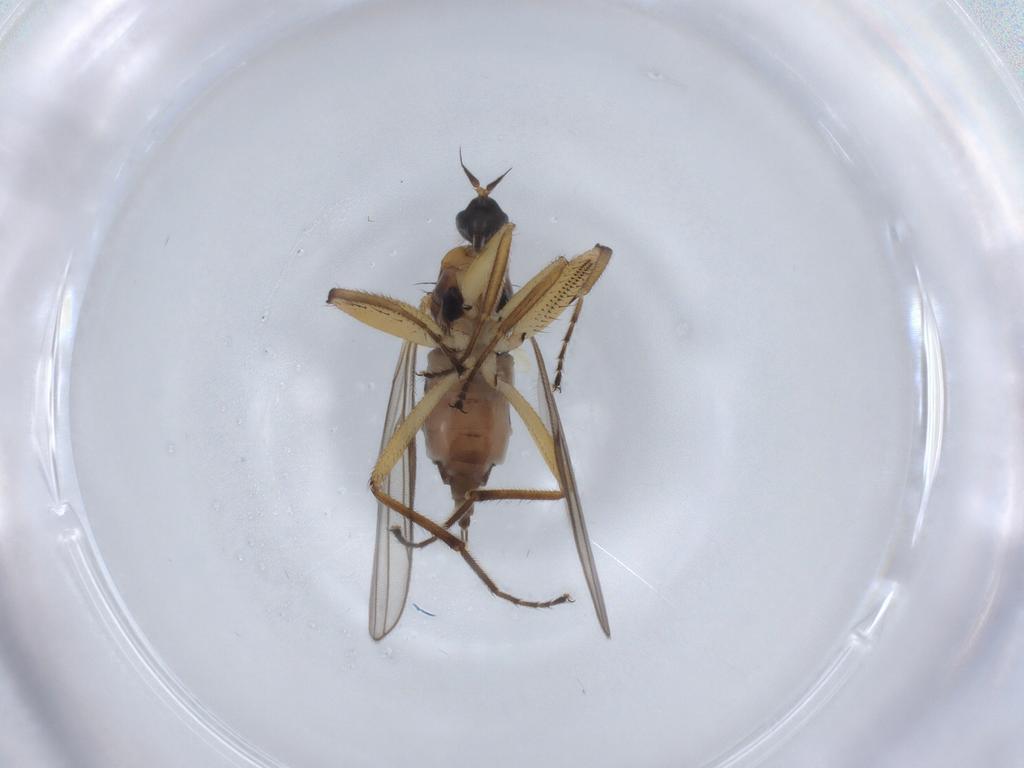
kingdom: Animalia
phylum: Arthropoda
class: Insecta
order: Diptera
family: Hybotidae
